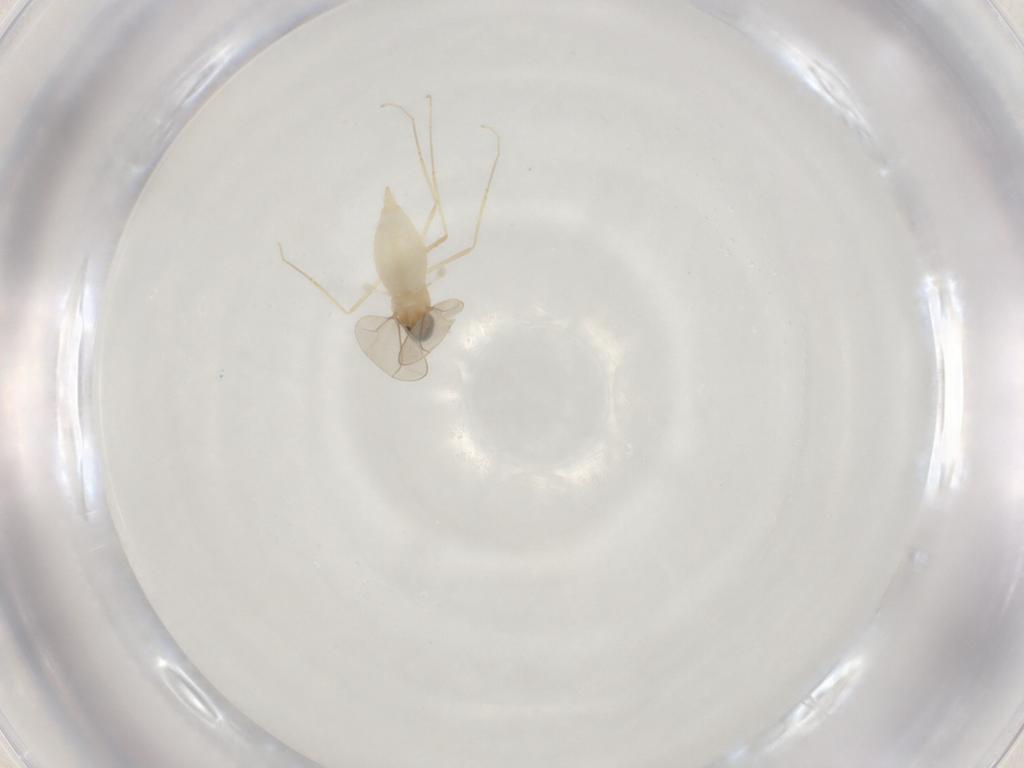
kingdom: Animalia
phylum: Arthropoda
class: Insecta
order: Diptera
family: Cecidomyiidae
